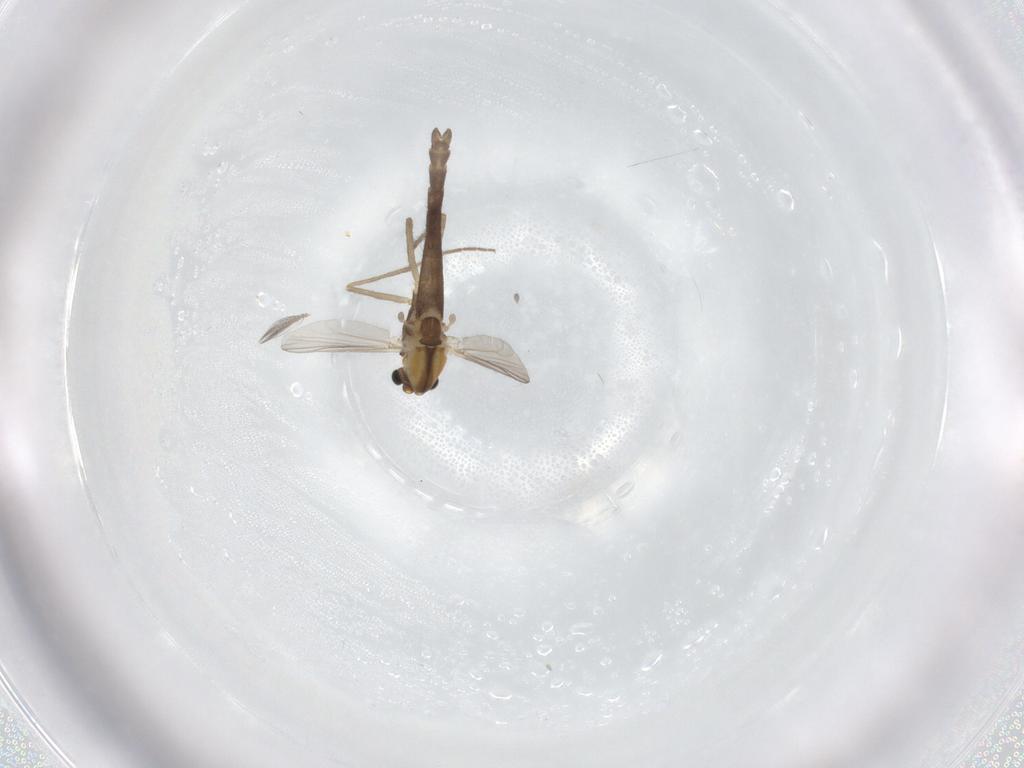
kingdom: Animalia
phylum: Arthropoda
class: Insecta
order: Diptera
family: Chironomidae
